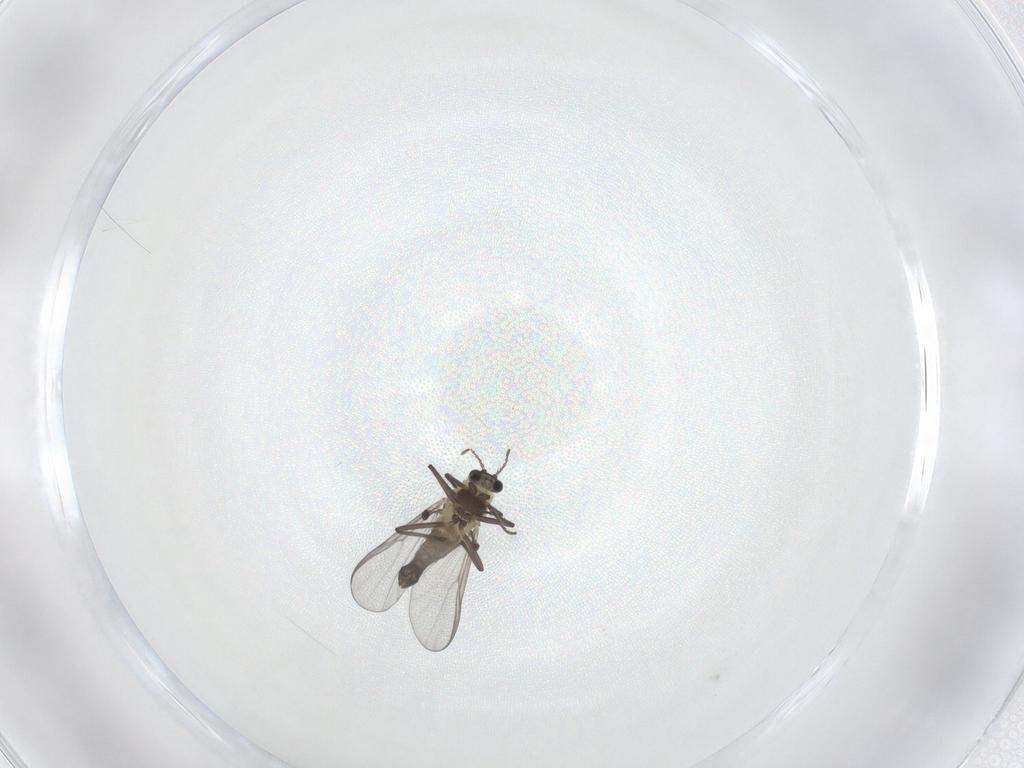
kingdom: Animalia
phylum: Arthropoda
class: Insecta
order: Diptera
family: Chironomidae
